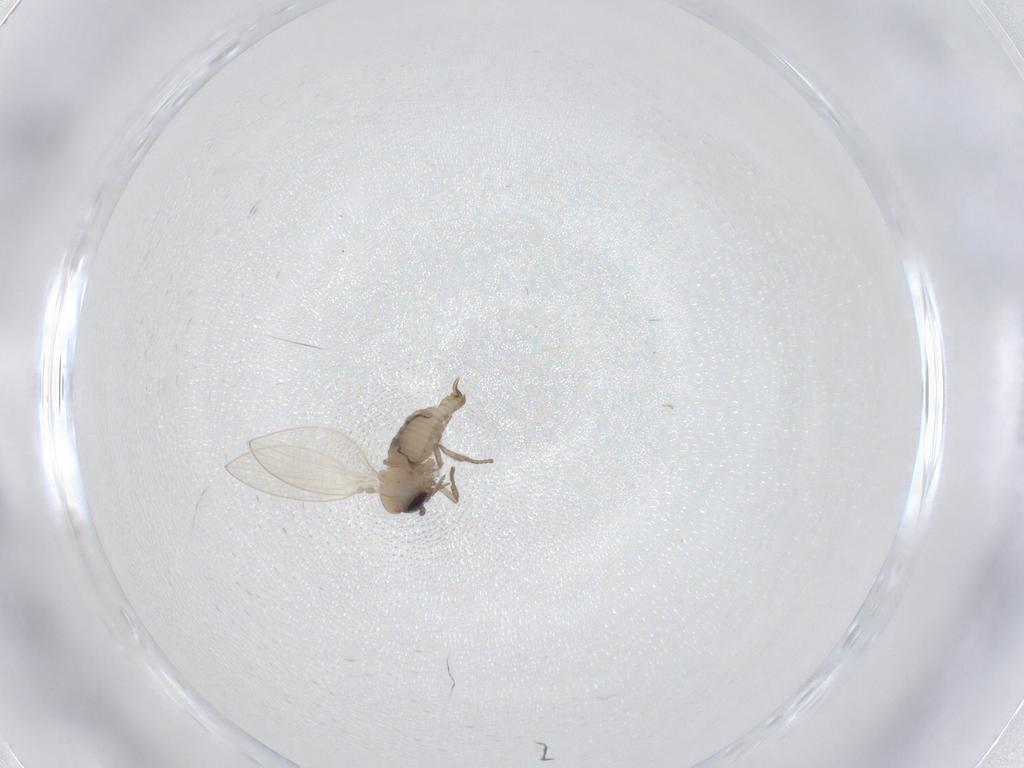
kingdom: Animalia
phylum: Arthropoda
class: Insecta
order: Diptera
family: Psychodidae
